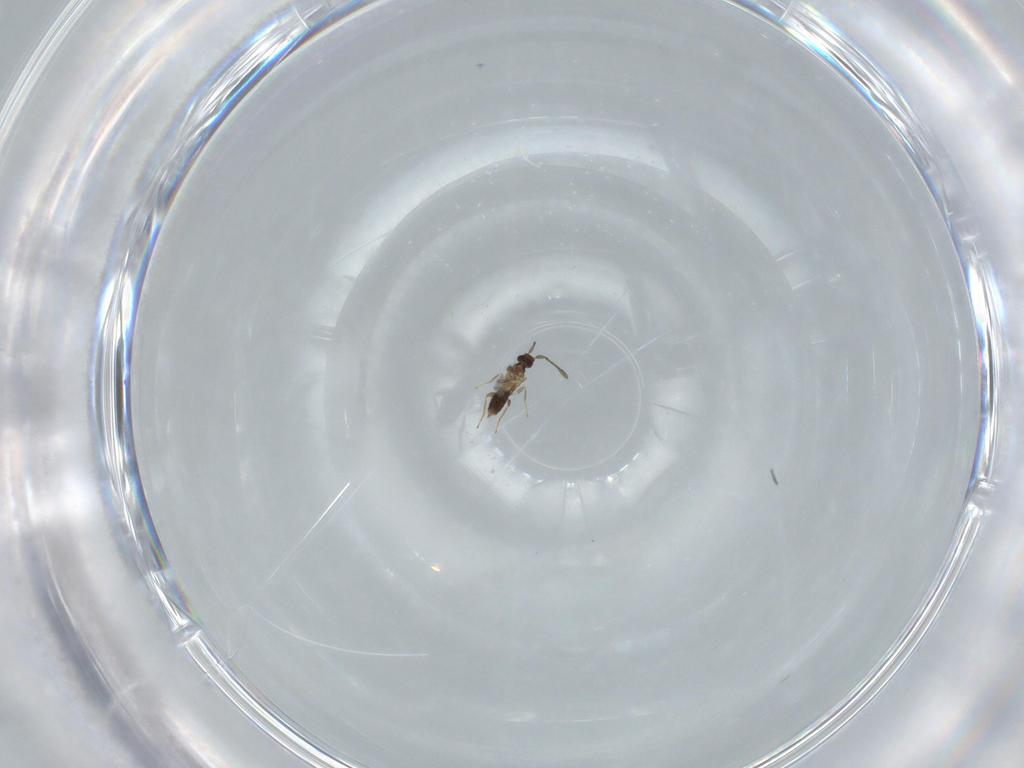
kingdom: Animalia
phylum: Arthropoda
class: Insecta
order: Hymenoptera
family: Mymaridae
